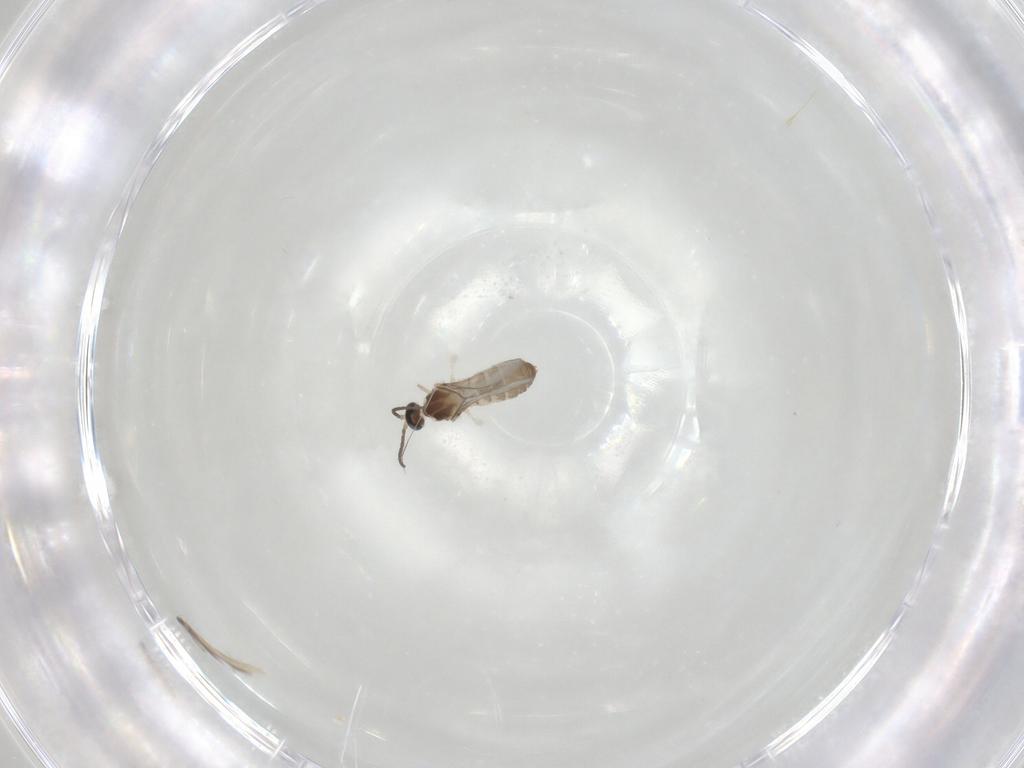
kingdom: Animalia
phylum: Arthropoda
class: Insecta
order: Diptera
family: Cecidomyiidae
